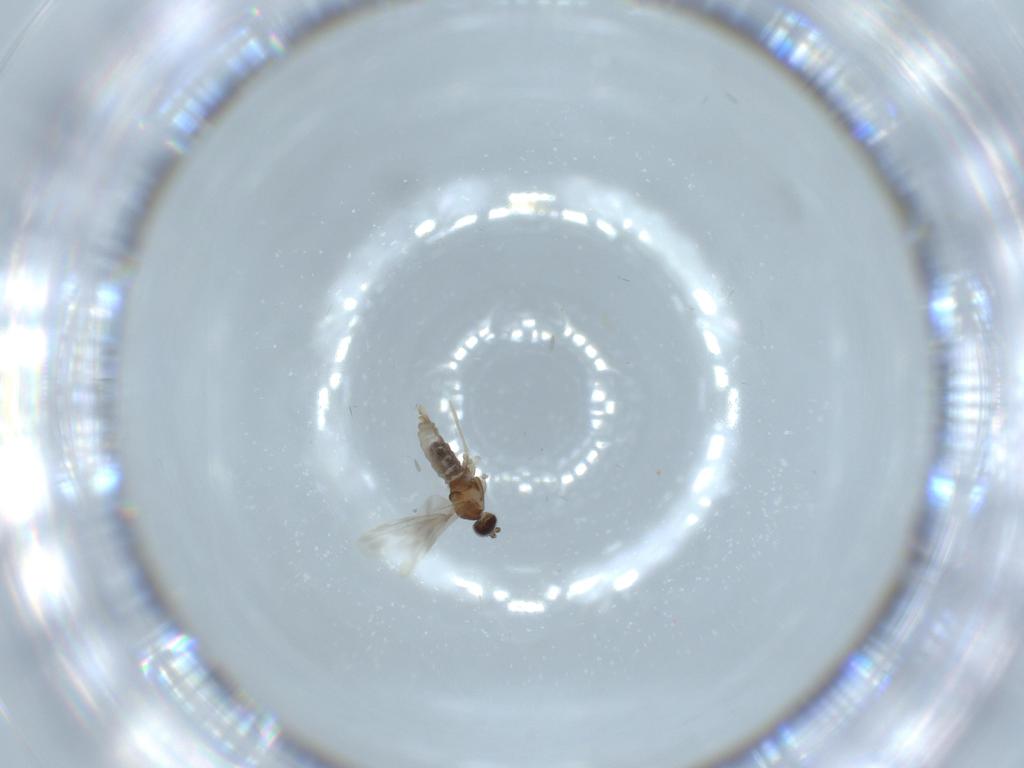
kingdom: Animalia
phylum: Arthropoda
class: Insecta
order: Diptera
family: Cecidomyiidae
